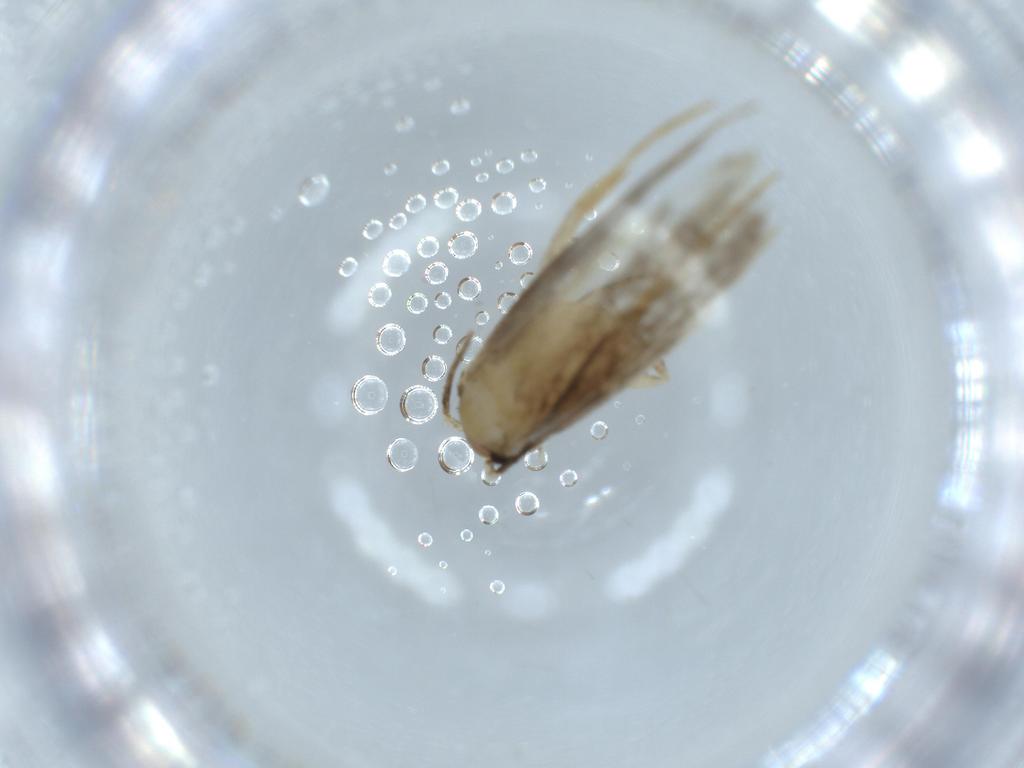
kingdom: Animalia
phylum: Arthropoda
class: Insecta
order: Lepidoptera
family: Tineidae
